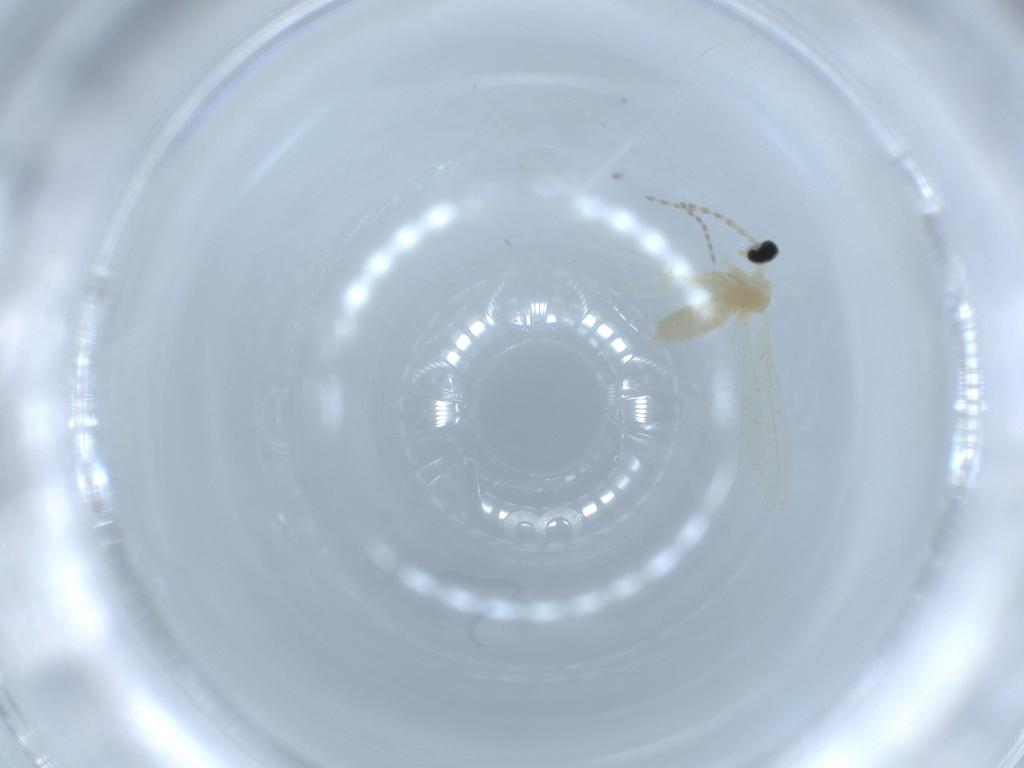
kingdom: Animalia
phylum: Arthropoda
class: Insecta
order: Diptera
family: Cecidomyiidae
